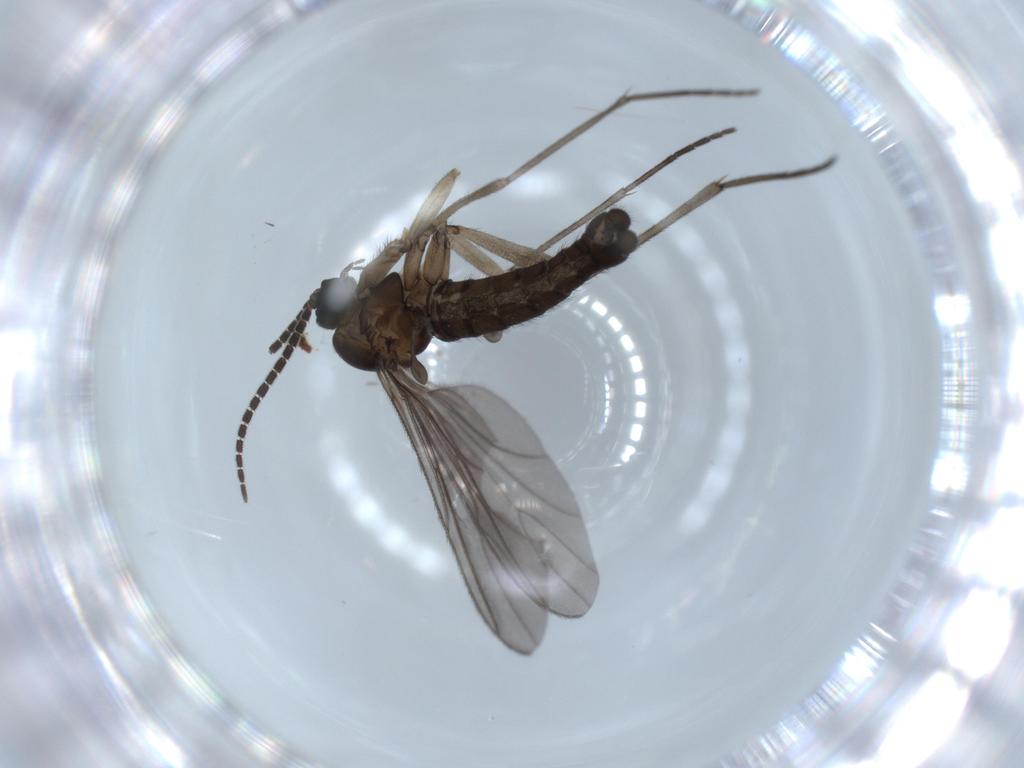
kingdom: Animalia
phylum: Arthropoda
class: Insecta
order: Diptera
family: Sciaridae
